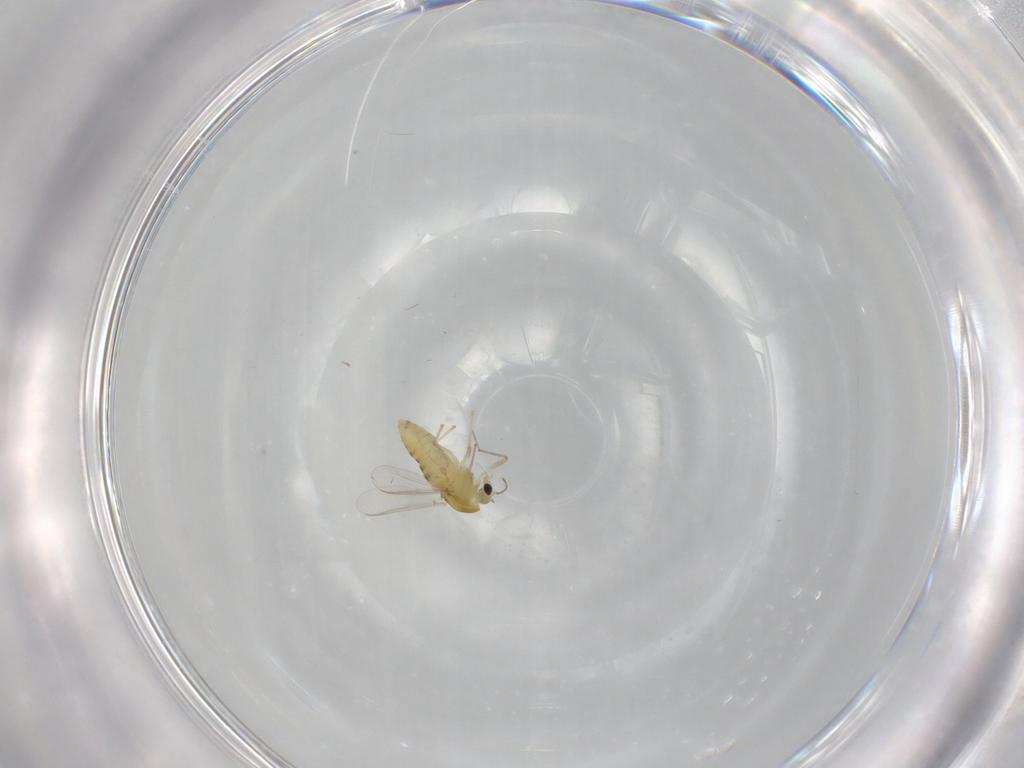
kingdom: Animalia
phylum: Arthropoda
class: Insecta
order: Diptera
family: Chironomidae
